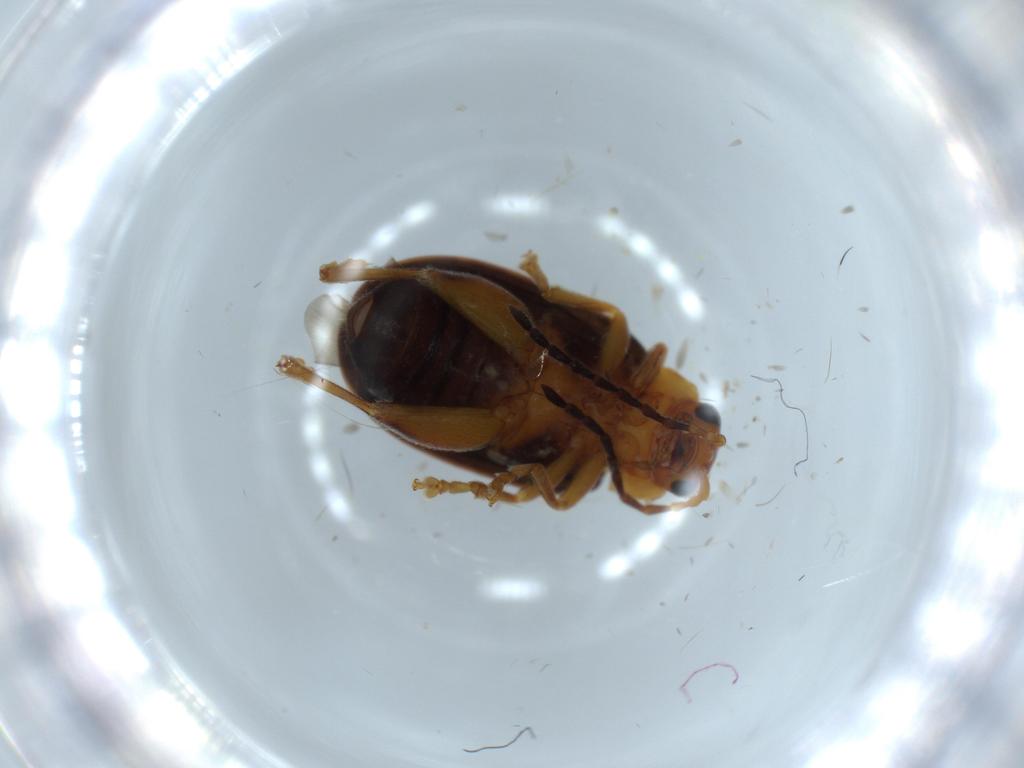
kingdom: Animalia
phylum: Arthropoda
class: Insecta
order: Coleoptera
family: Chrysomelidae
